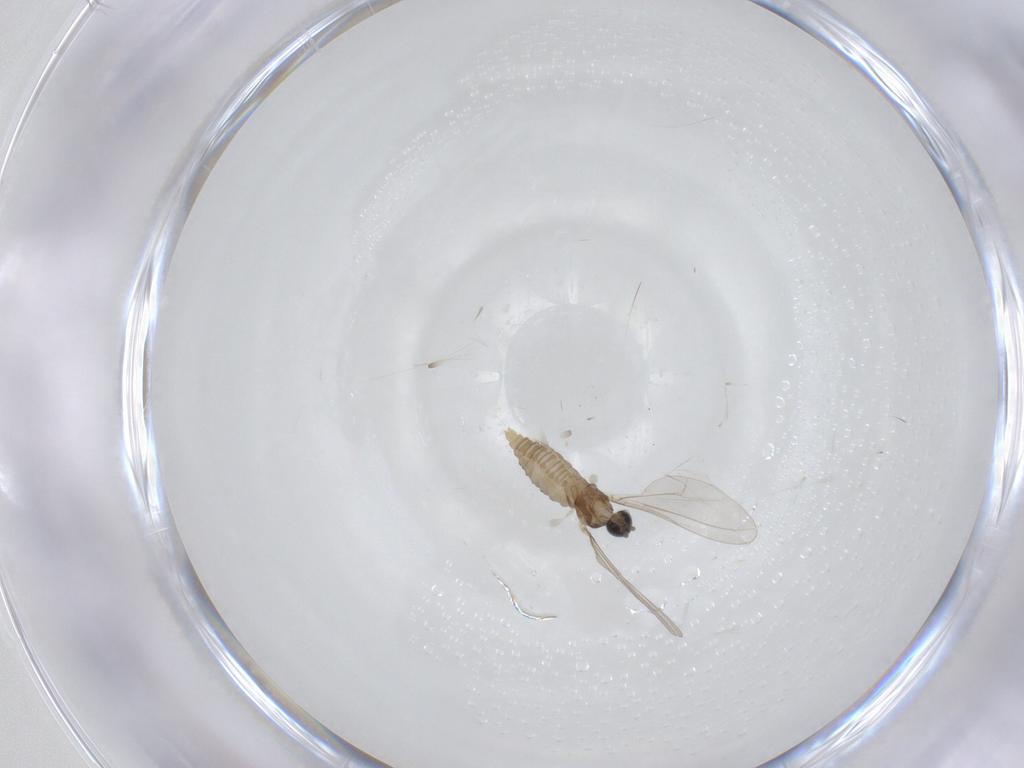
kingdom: Animalia
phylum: Arthropoda
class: Insecta
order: Diptera
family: Cecidomyiidae
